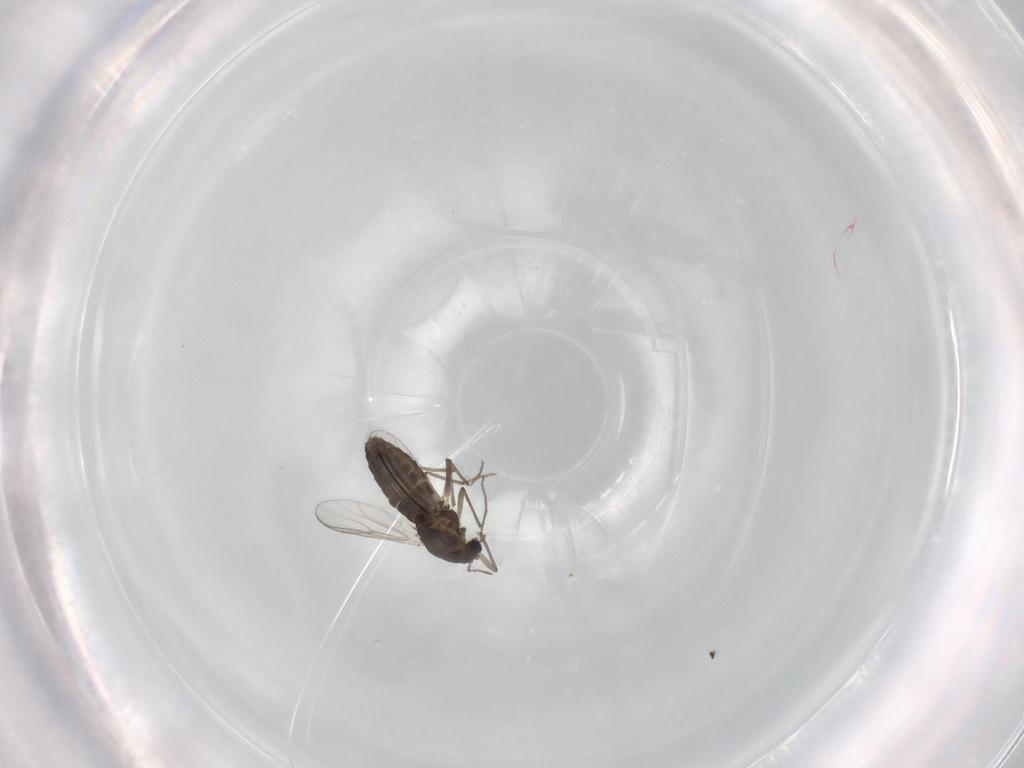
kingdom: Animalia
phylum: Arthropoda
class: Insecta
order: Diptera
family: Chironomidae
